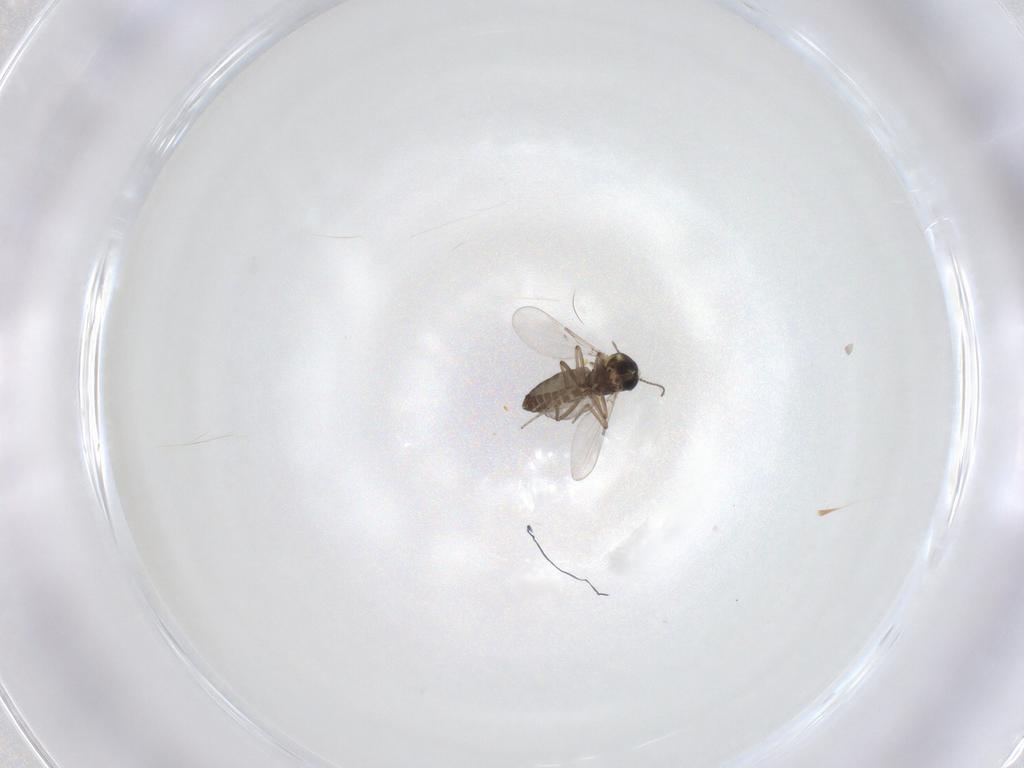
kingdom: Animalia
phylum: Arthropoda
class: Insecta
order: Diptera
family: Ceratopogonidae
